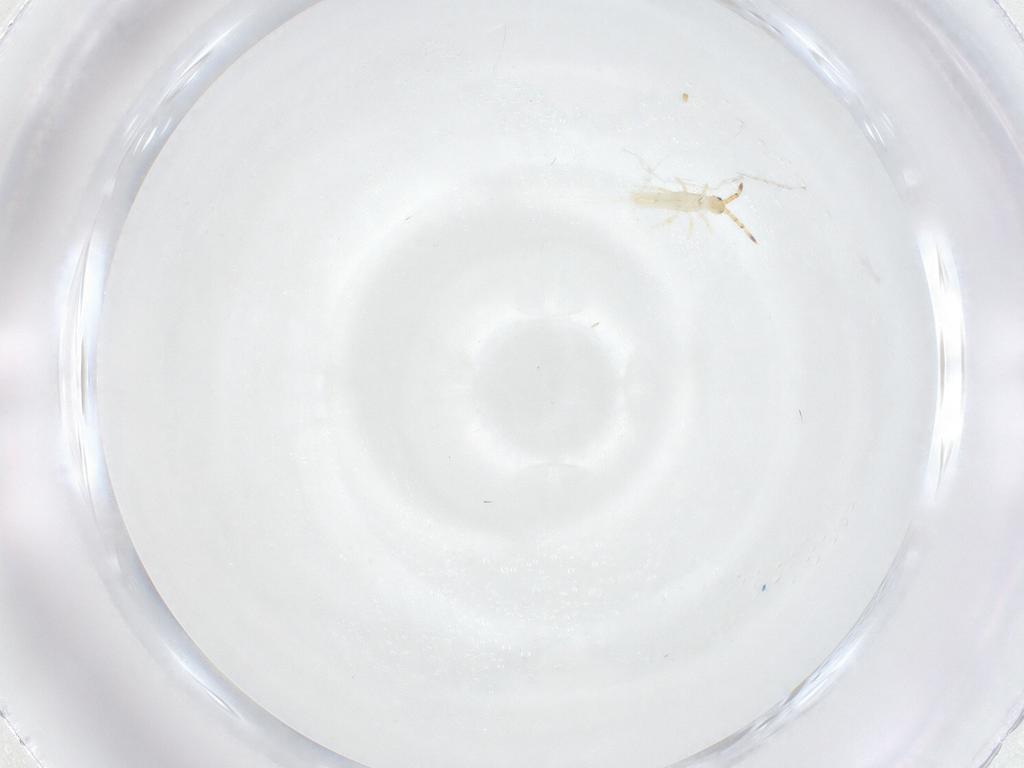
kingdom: Animalia
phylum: Arthropoda
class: Collembola
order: Entomobryomorpha
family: Entomobryidae
